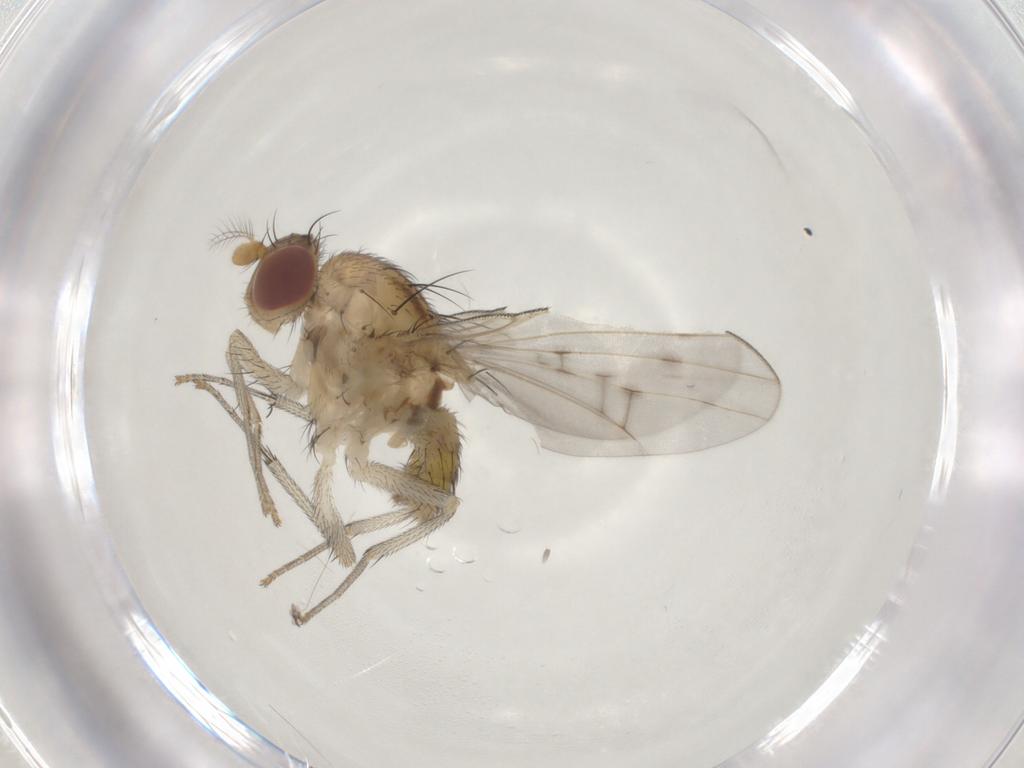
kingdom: Animalia
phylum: Arthropoda
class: Insecta
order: Diptera
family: Lauxaniidae
